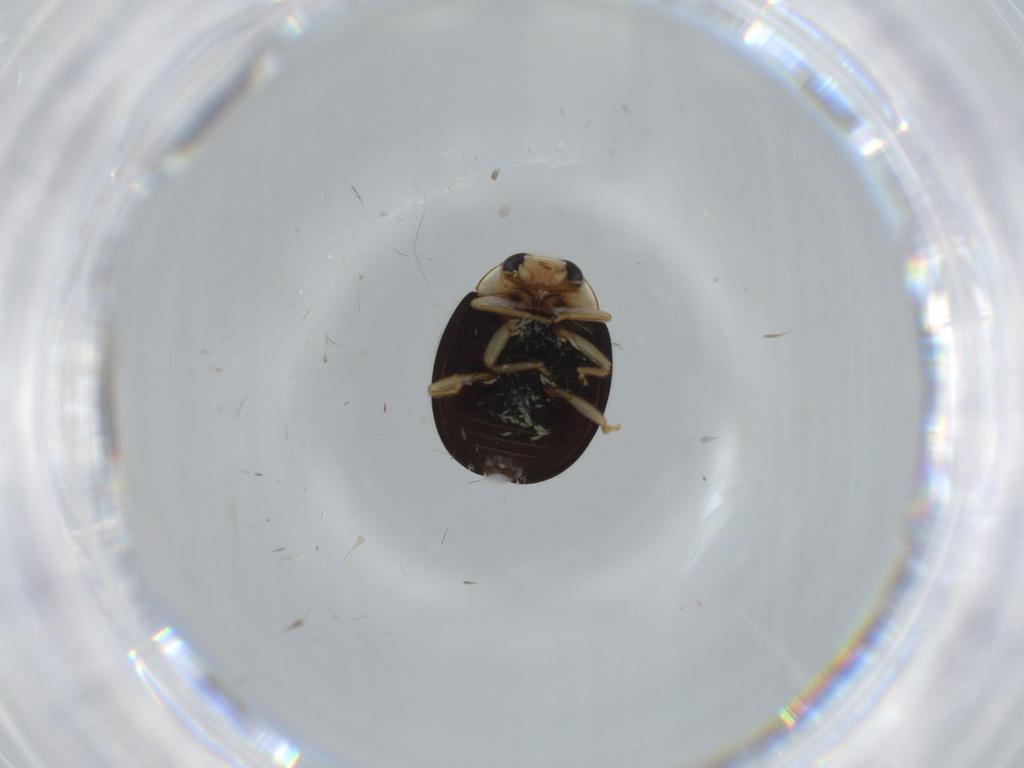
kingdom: Animalia
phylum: Arthropoda
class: Insecta
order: Coleoptera
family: Coccinellidae
